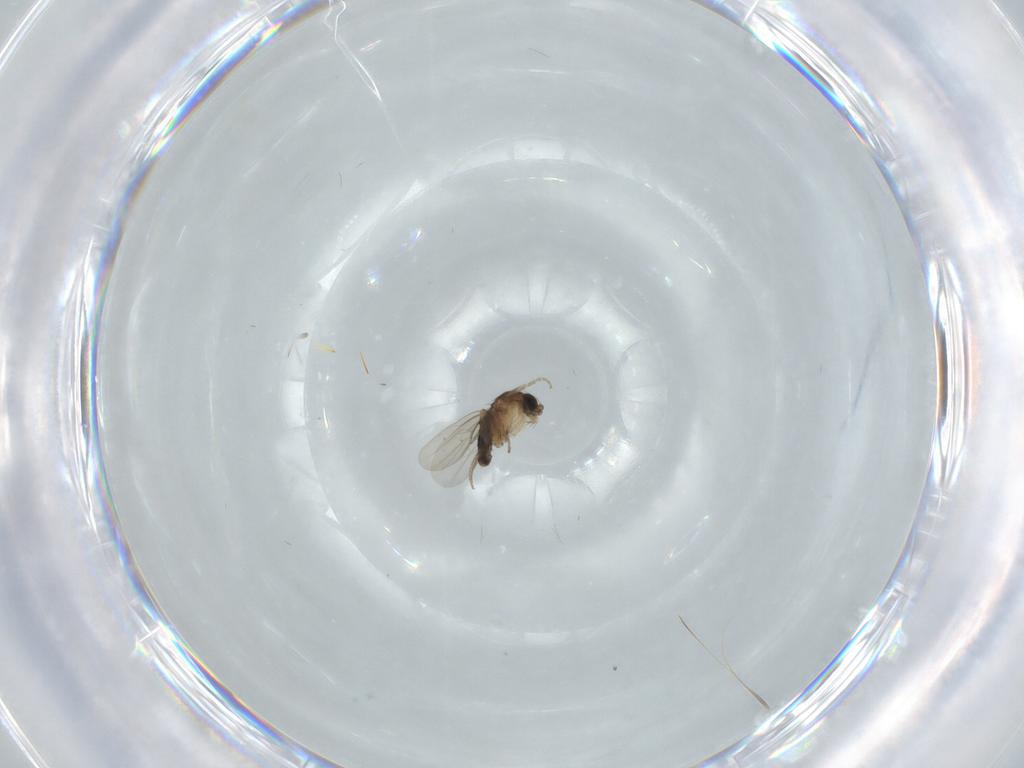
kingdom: Animalia
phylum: Arthropoda
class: Insecta
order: Diptera
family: Phoridae
